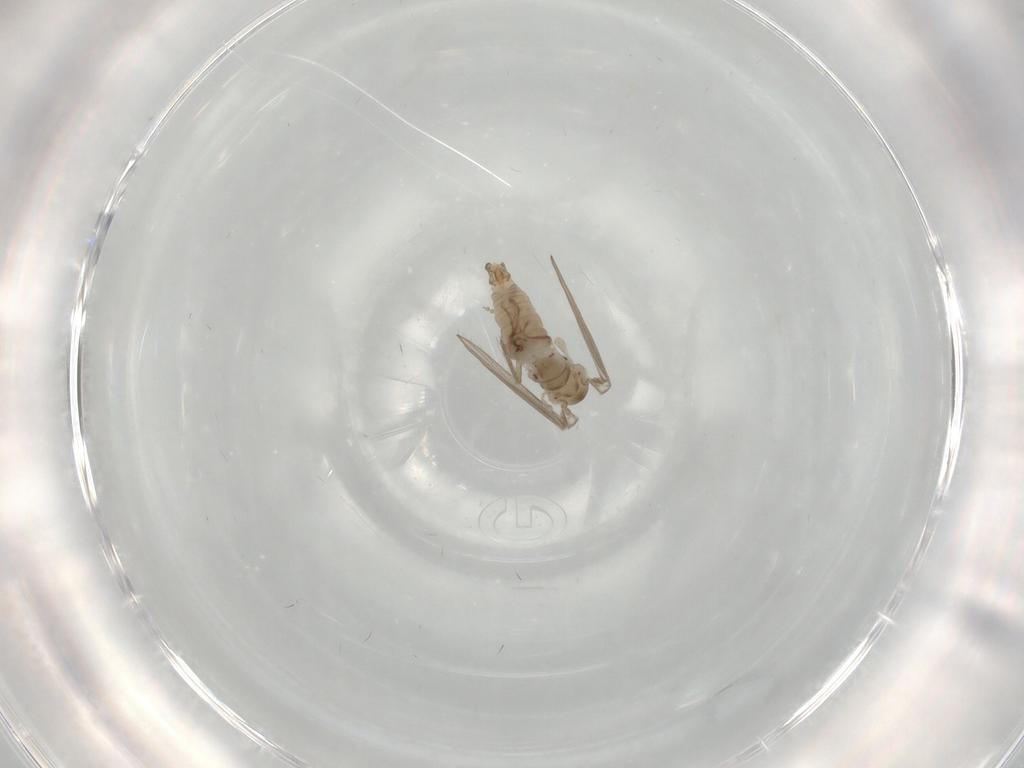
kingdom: Animalia
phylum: Arthropoda
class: Insecta
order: Diptera
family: Psychodidae
